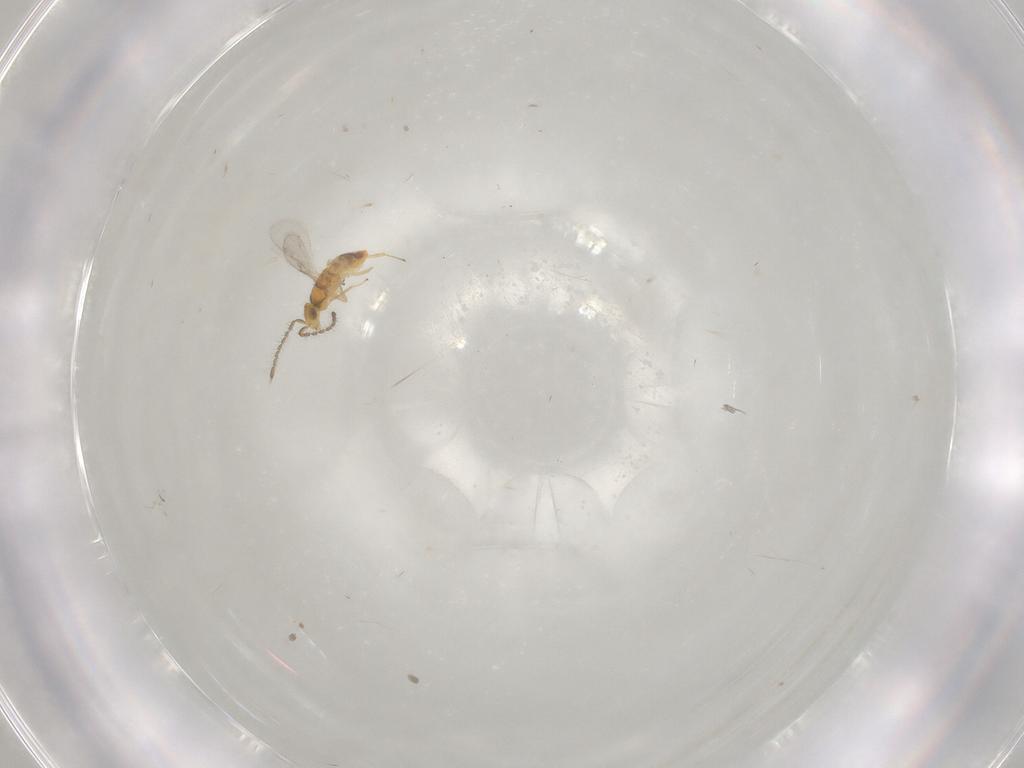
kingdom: Animalia
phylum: Arthropoda
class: Insecta
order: Hymenoptera
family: Encyrtidae
